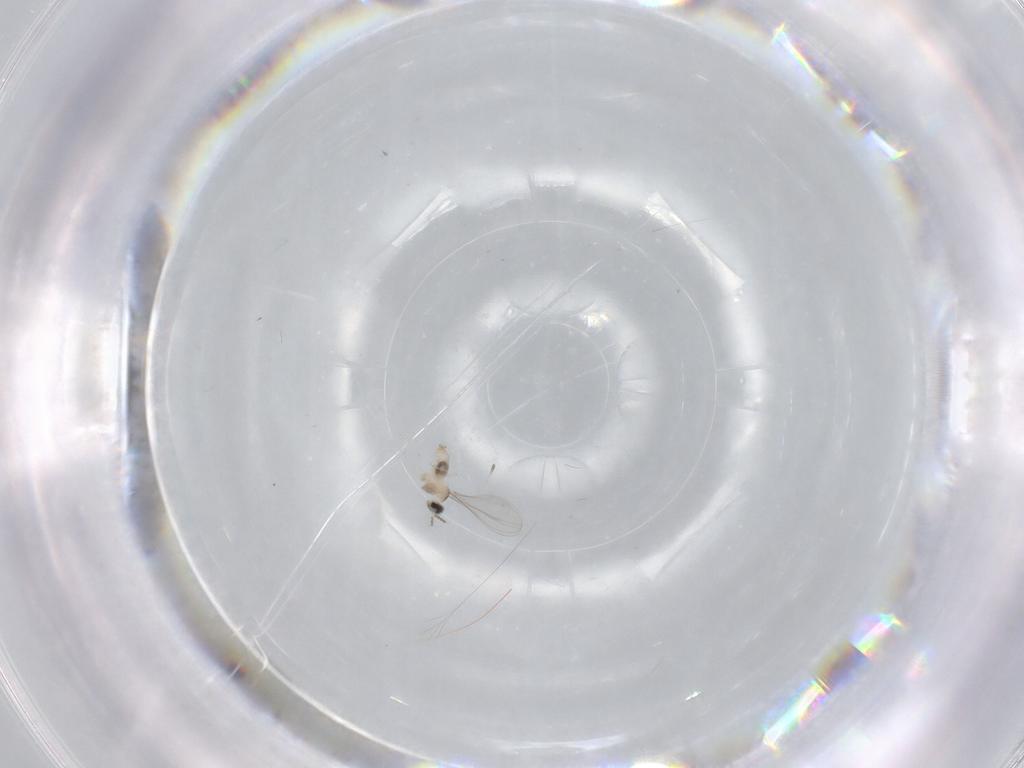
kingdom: Animalia
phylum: Arthropoda
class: Insecta
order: Diptera
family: Cecidomyiidae
